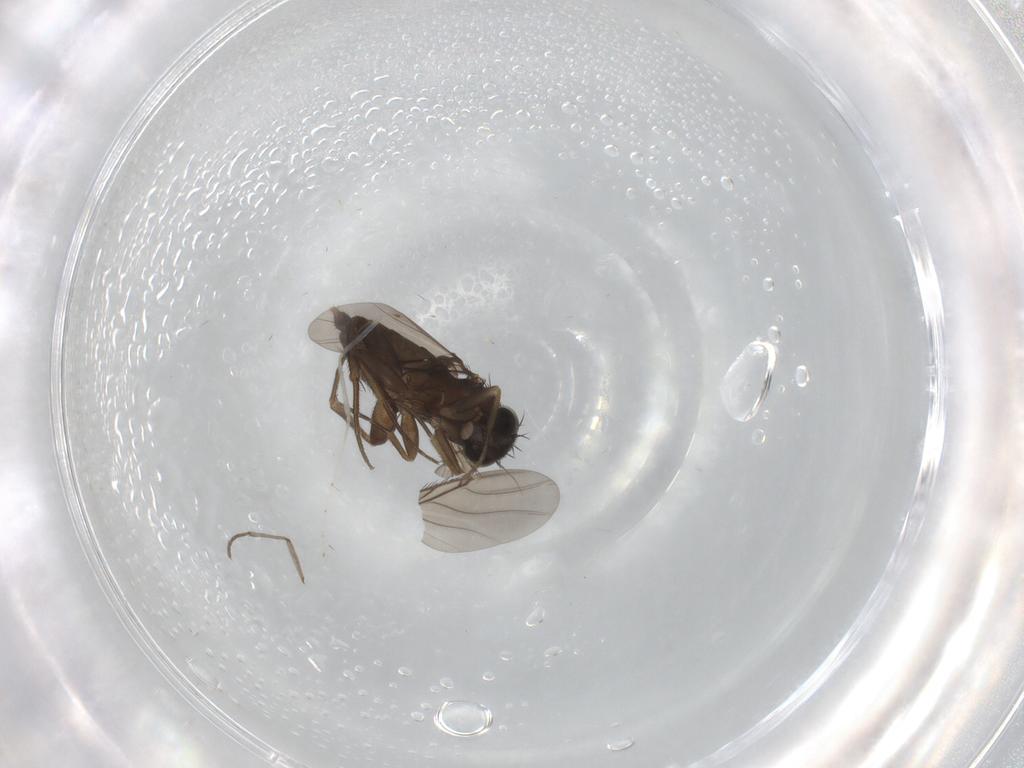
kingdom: Animalia
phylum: Arthropoda
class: Insecta
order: Diptera
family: Phoridae
